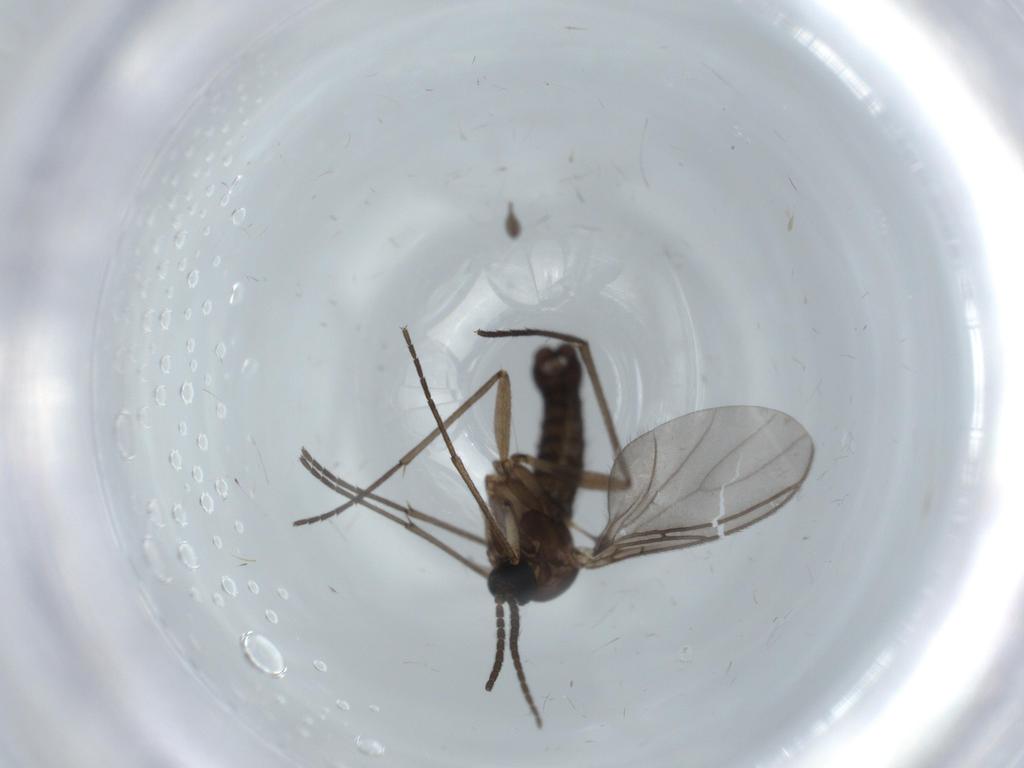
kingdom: Animalia
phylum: Arthropoda
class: Insecta
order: Diptera
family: Sciaridae
